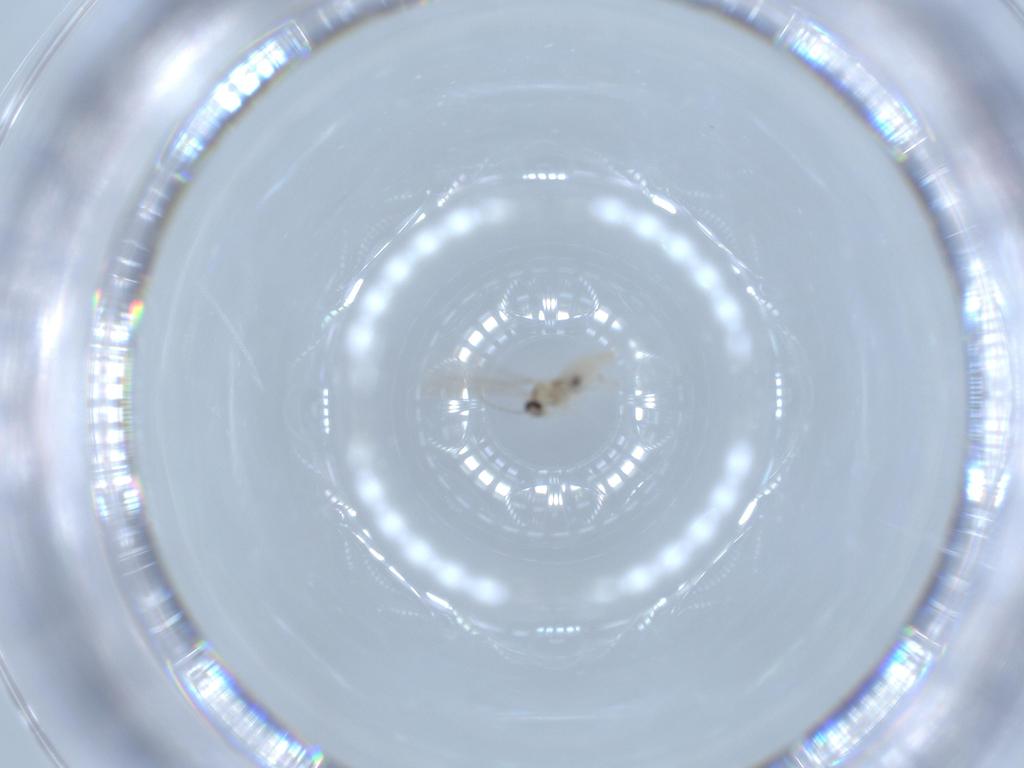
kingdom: Animalia
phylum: Arthropoda
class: Insecta
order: Diptera
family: Cecidomyiidae
